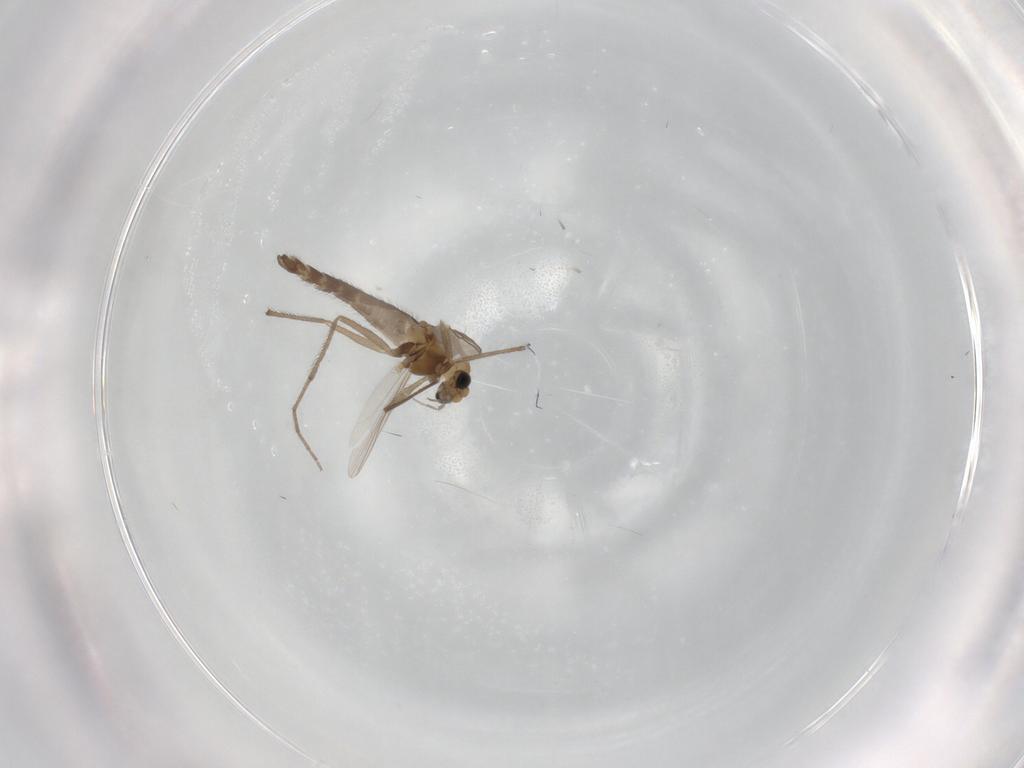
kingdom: Animalia
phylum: Arthropoda
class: Insecta
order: Diptera
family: Chironomidae
